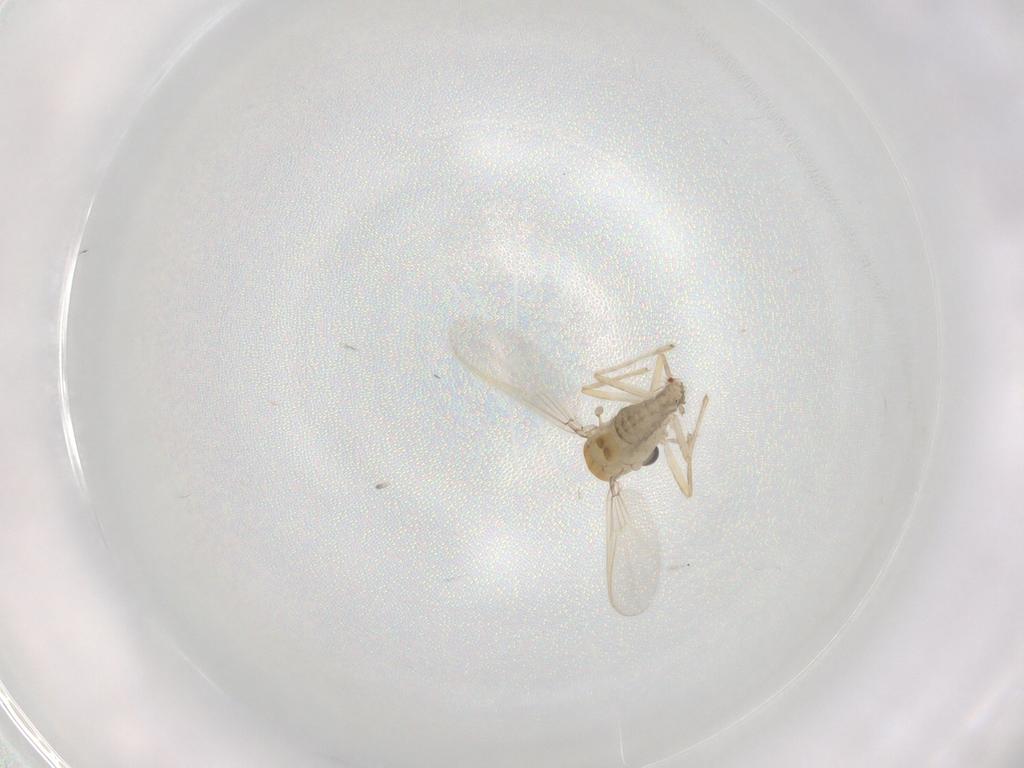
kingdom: Animalia
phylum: Arthropoda
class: Insecta
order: Diptera
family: Chironomidae
